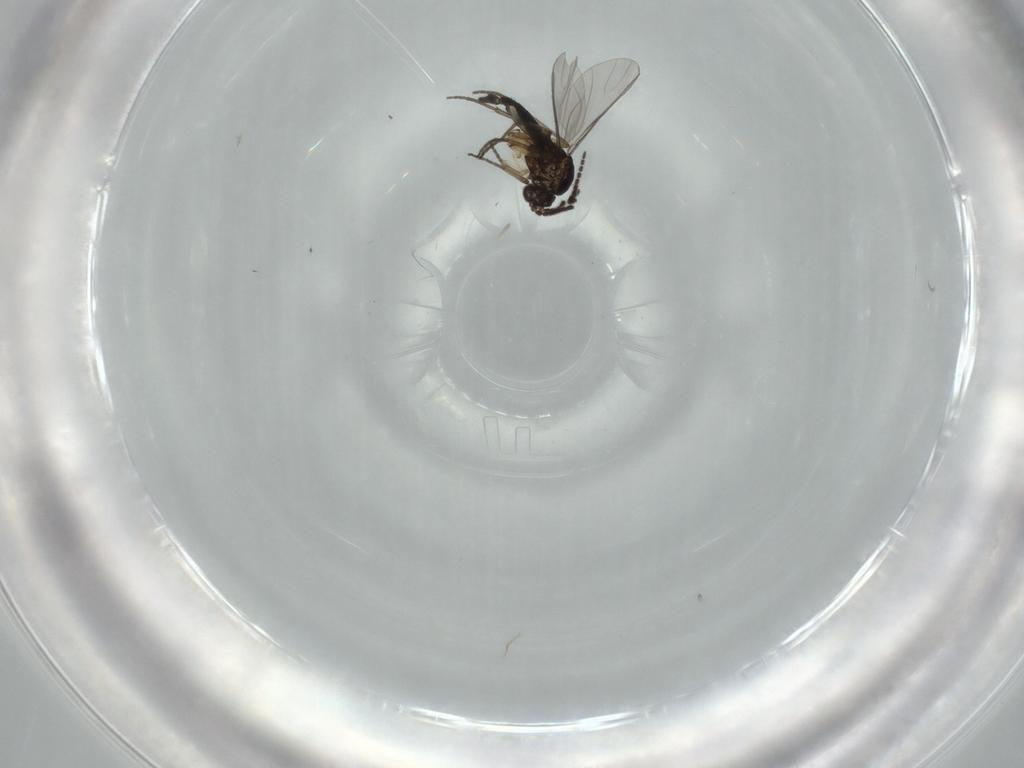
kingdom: Animalia
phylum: Arthropoda
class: Insecta
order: Diptera
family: Sciaridae
